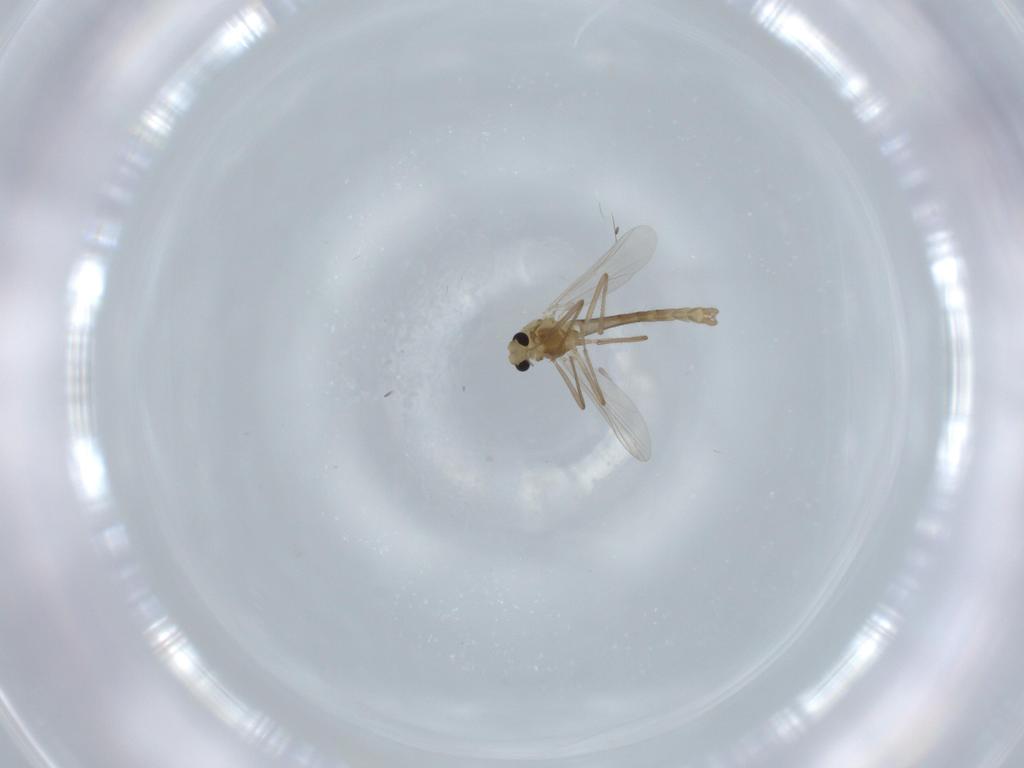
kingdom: Animalia
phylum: Arthropoda
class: Insecta
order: Diptera
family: Chironomidae
